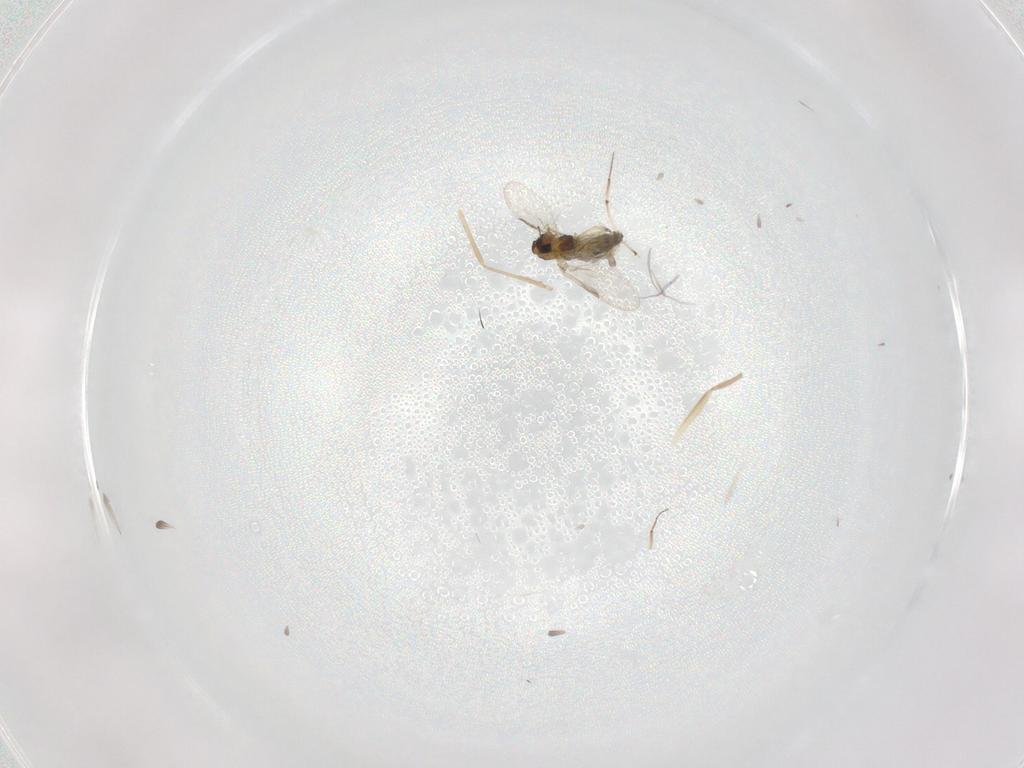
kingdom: Animalia
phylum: Arthropoda
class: Insecta
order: Diptera
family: Chironomidae
